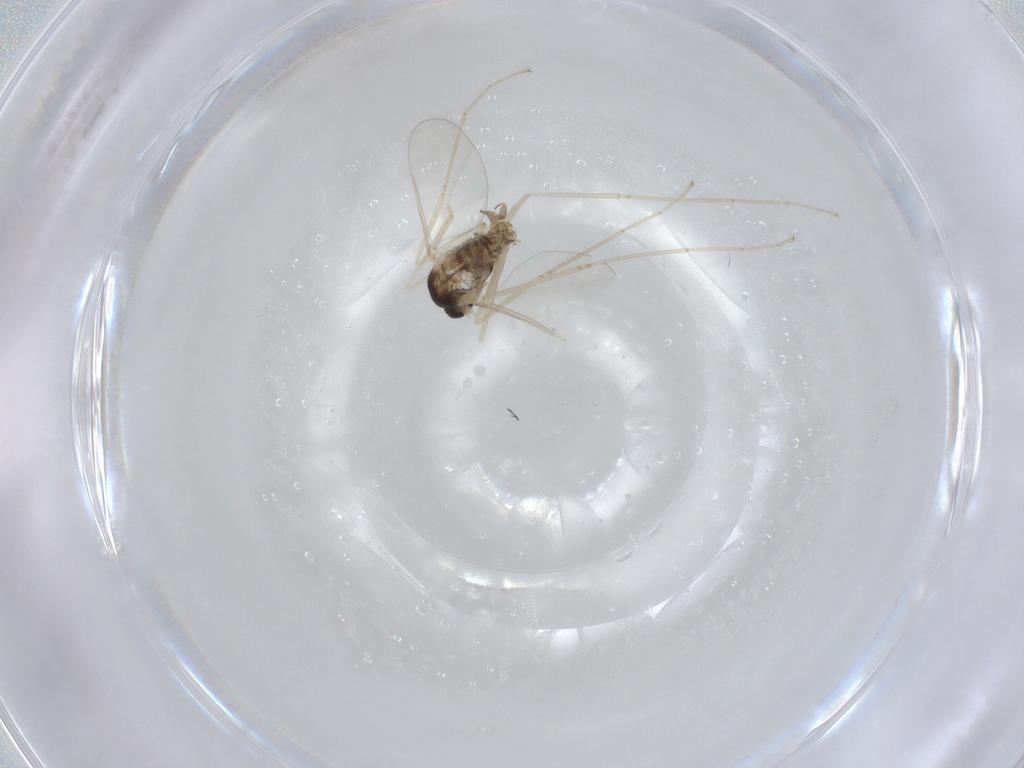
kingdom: Animalia
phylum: Arthropoda
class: Insecta
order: Diptera
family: Cecidomyiidae
